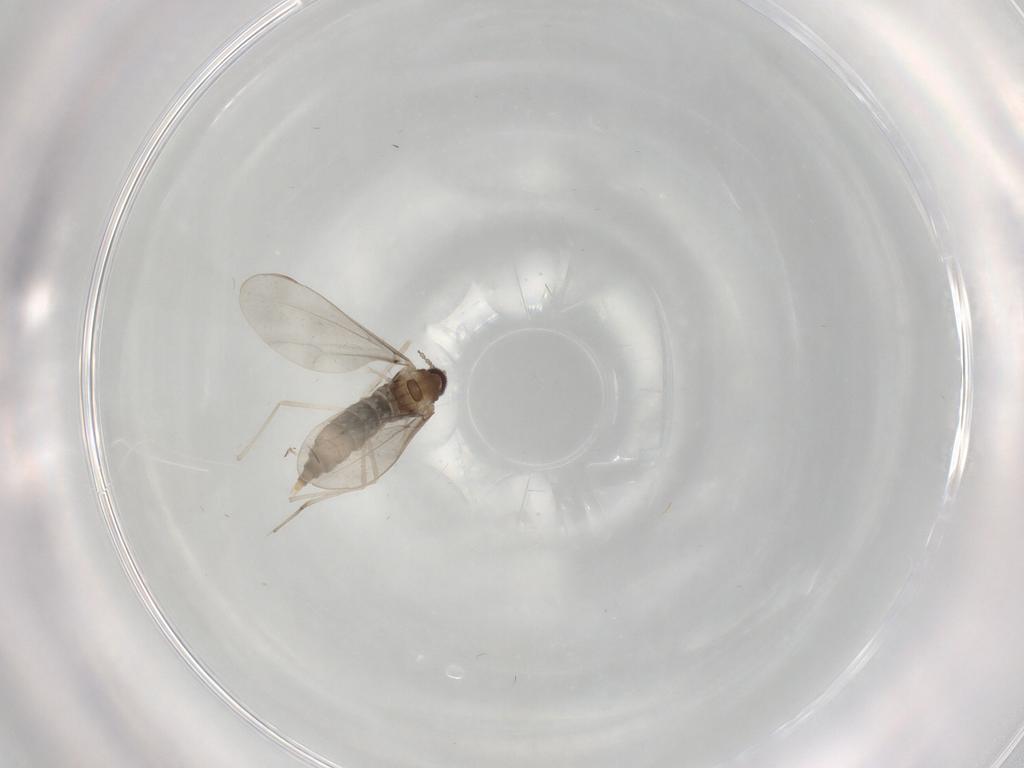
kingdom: Animalia
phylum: Arthropoda
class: Insecta
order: Diptera
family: Cecidomyiidae
